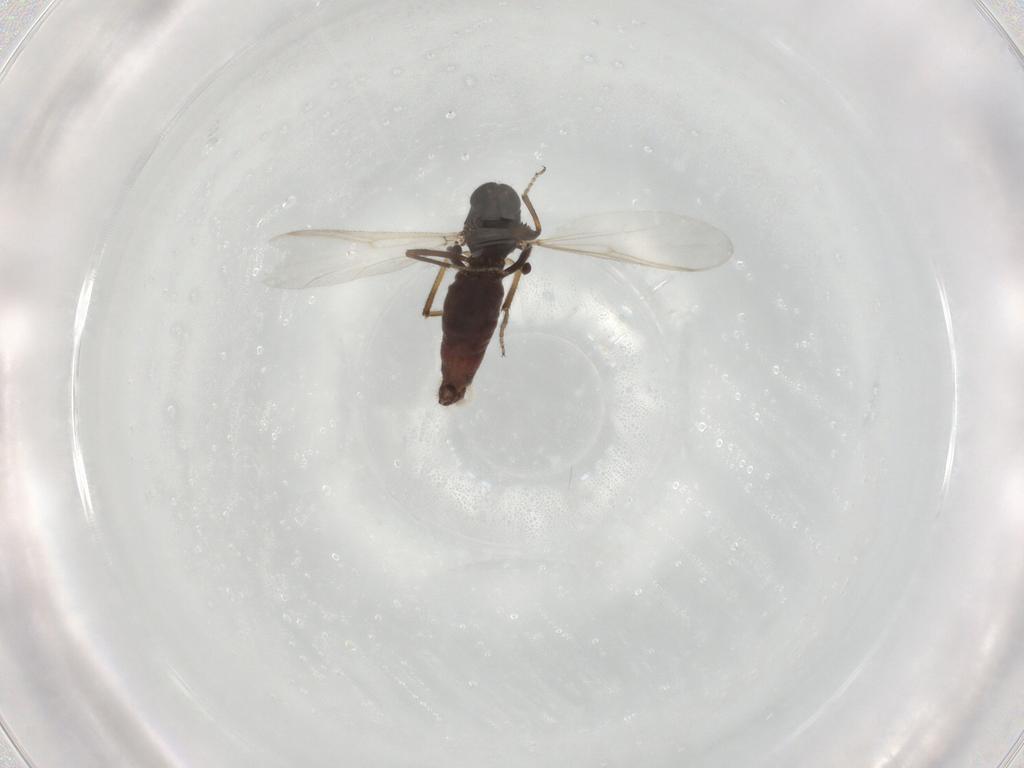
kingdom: Animalia
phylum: Arthropoda
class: Insecta
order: Diptera
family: Ceratopogonidae
